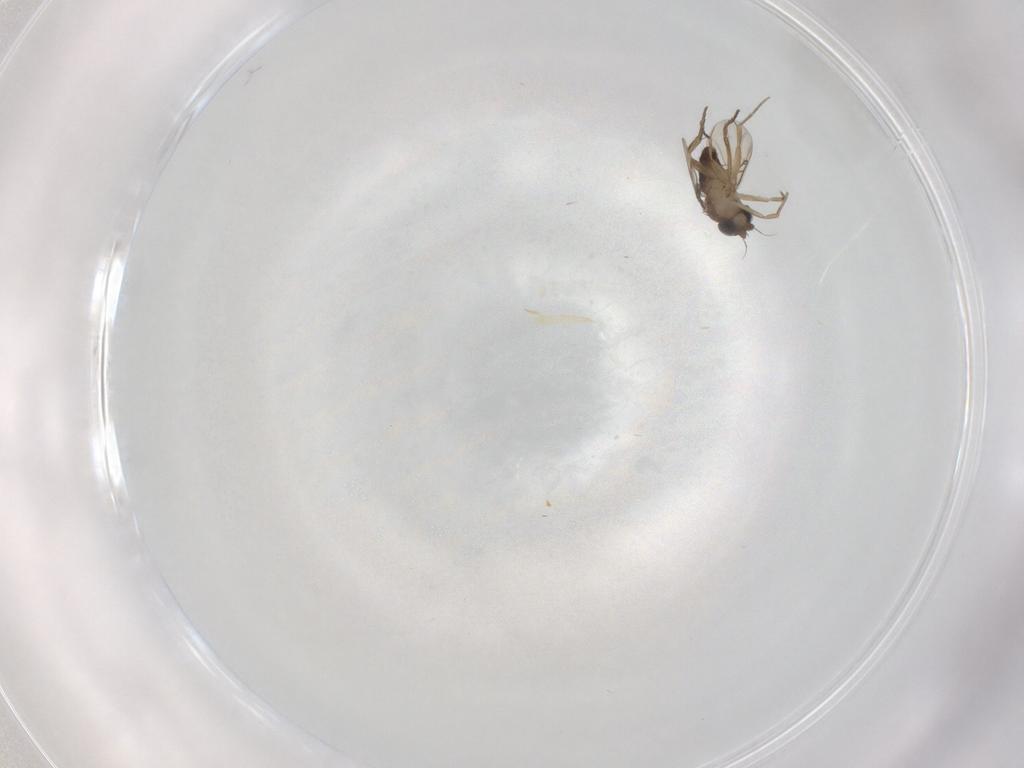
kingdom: Animalia
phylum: Arthropoda
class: Insecta
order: Diptera
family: Phoridae
